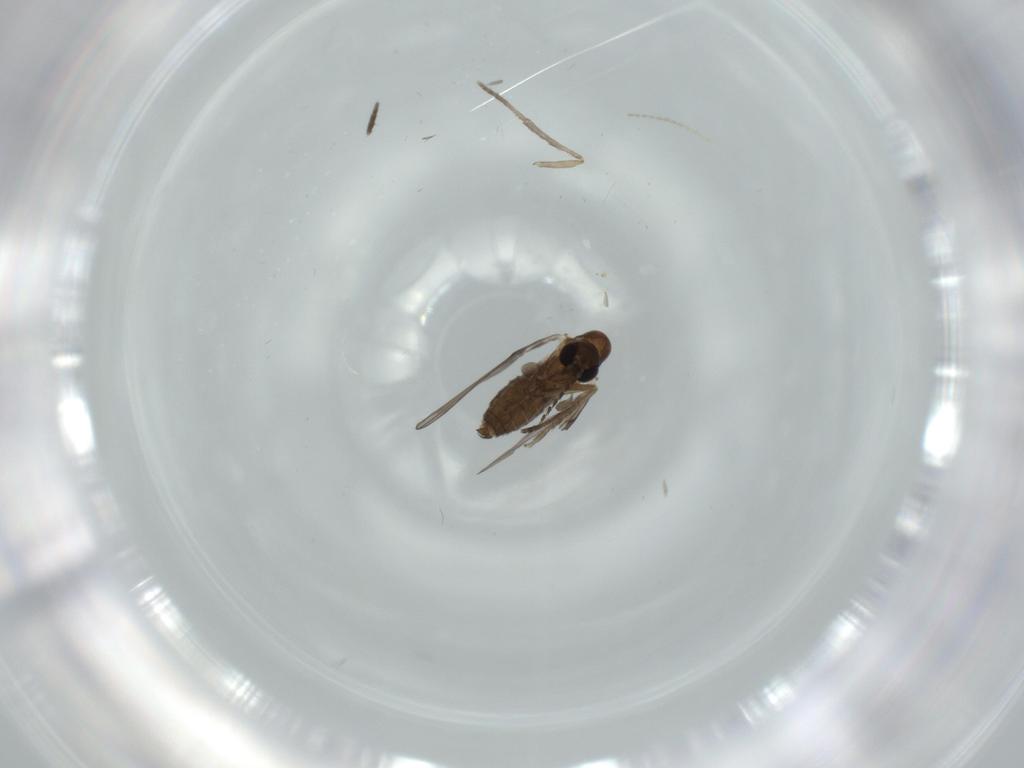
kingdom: Animalia
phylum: Arthropoda
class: Insecta
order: Diptera
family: Psychodidae
